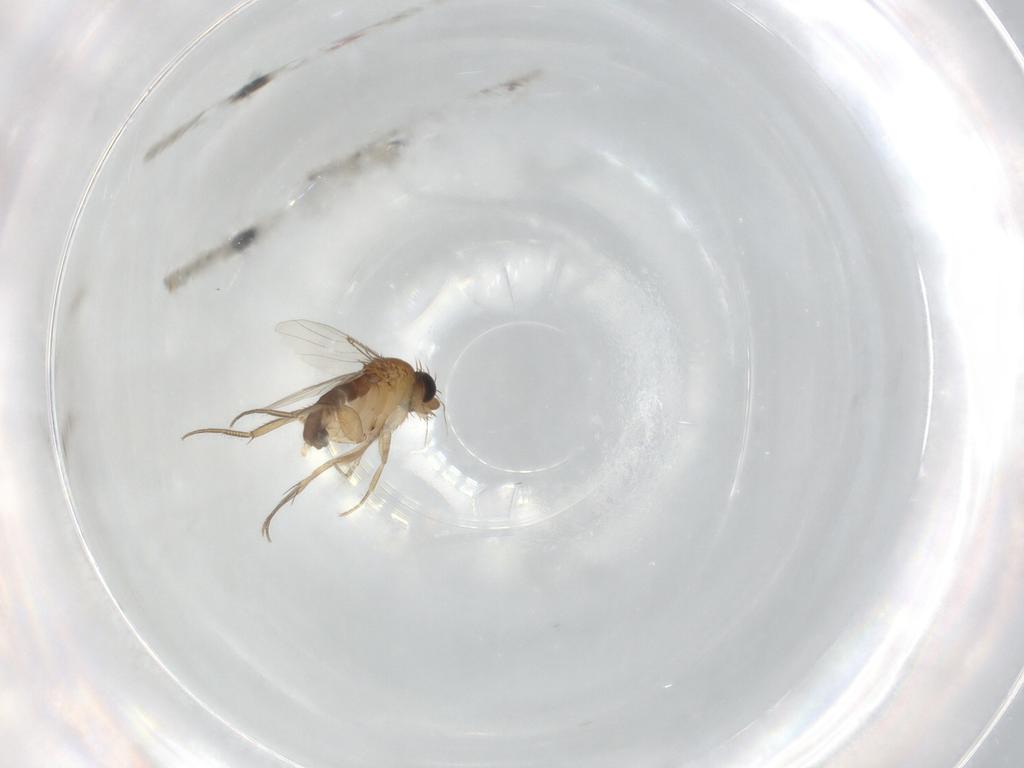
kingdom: Animalia
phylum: Arthropoda
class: Insecta
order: Diptera
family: Phoridae
